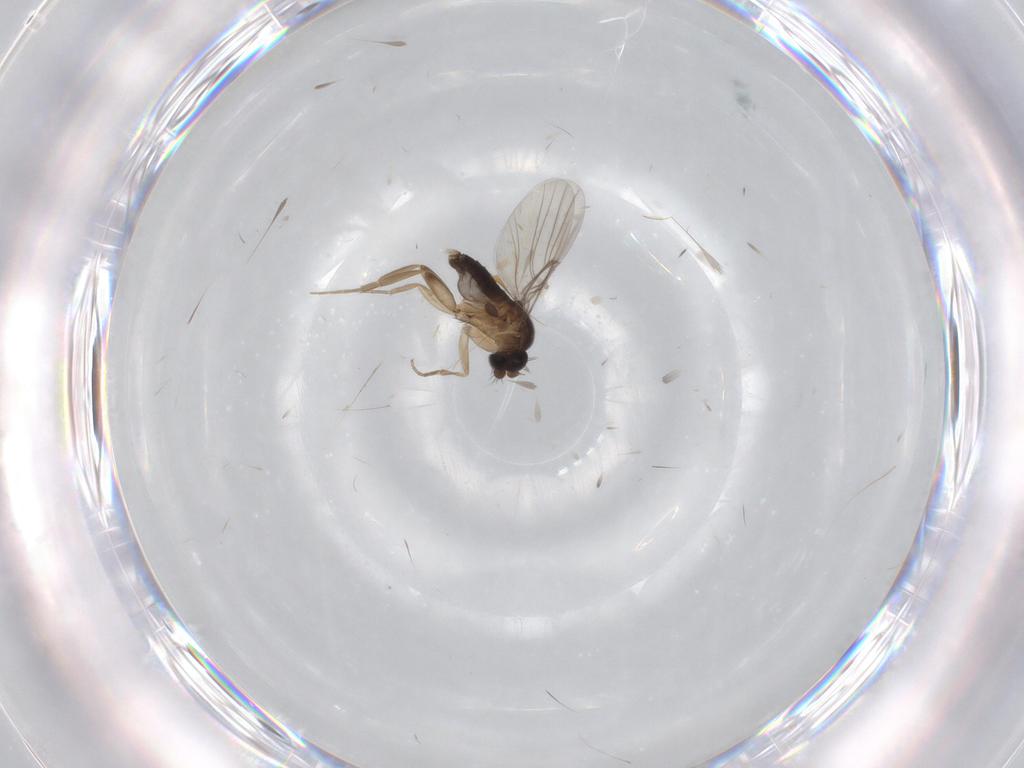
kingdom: Animalia
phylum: Arthropoda
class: Insecta
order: Diptera
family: Phoridae
